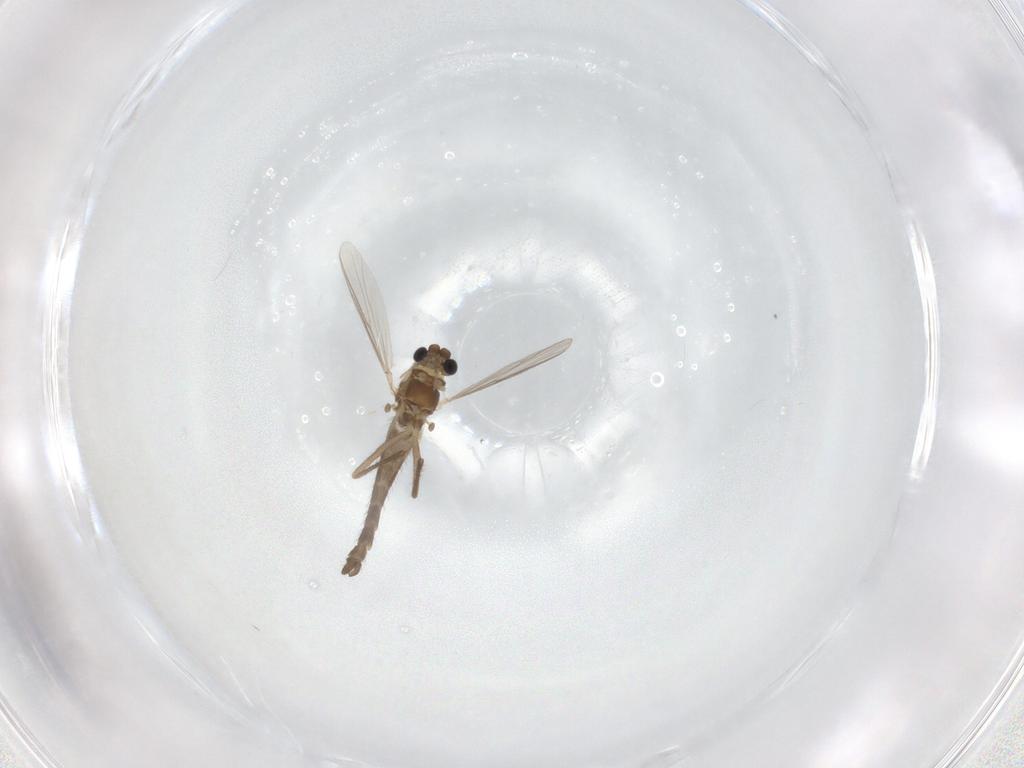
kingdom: Animalia
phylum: Arthropoda
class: Insecta
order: Diptera
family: Chironomidae
